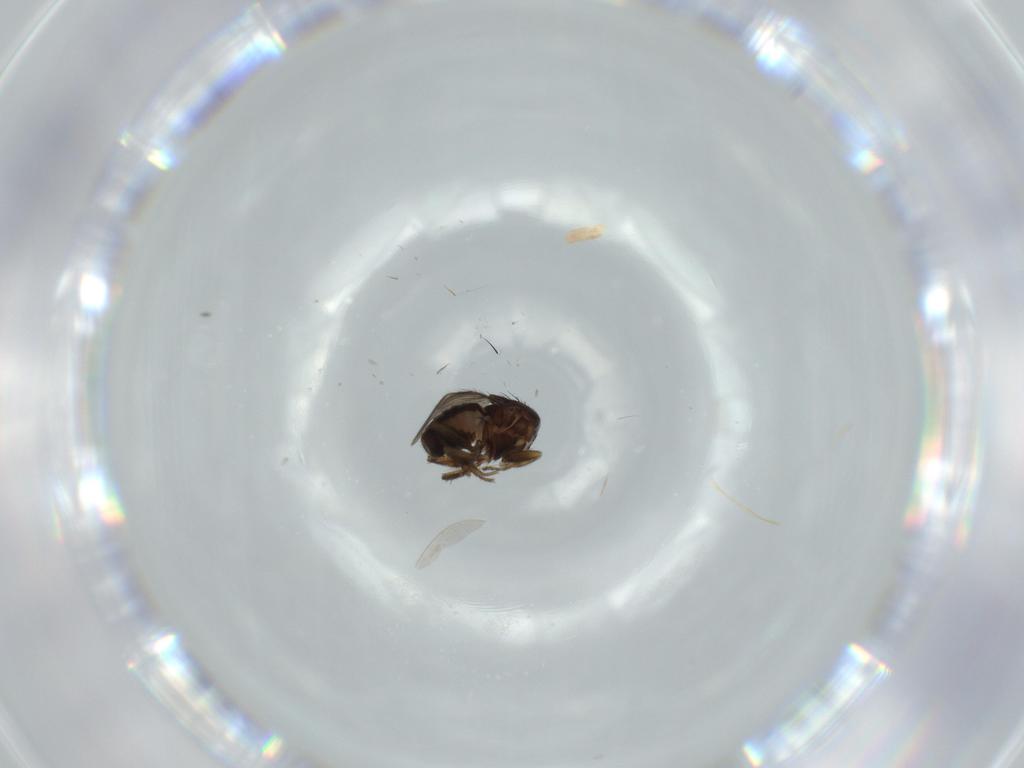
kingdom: Animalia
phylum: Arthropoda
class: Insecta
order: Diptera
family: Sphaeroceridae
